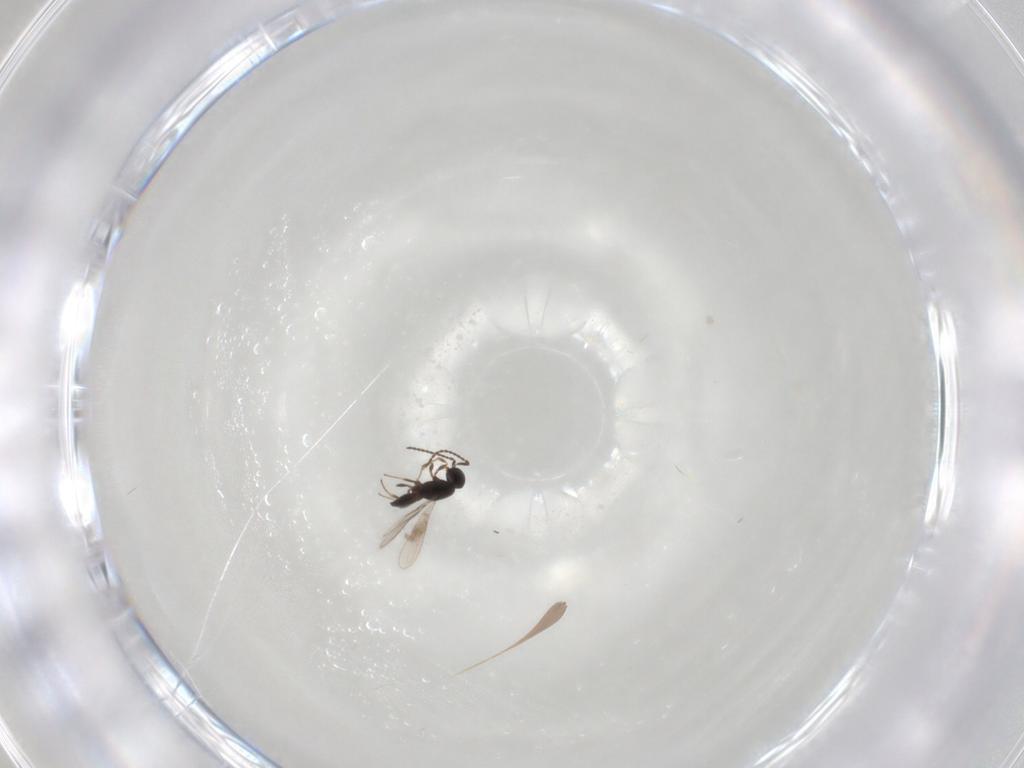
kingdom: Animalia
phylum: Arthropoda
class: Insecta
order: Hymenoptera
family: Scelionidae
